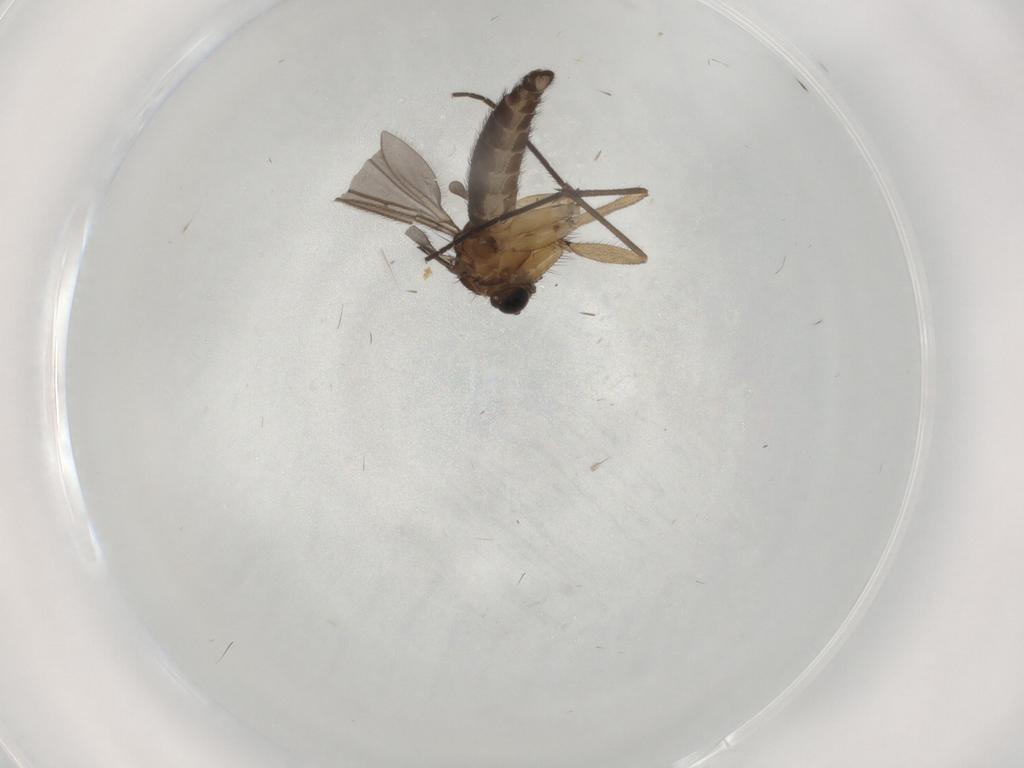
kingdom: Animalia
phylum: Arthropoda
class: Insecta
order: Diptera
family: Sciaridae
